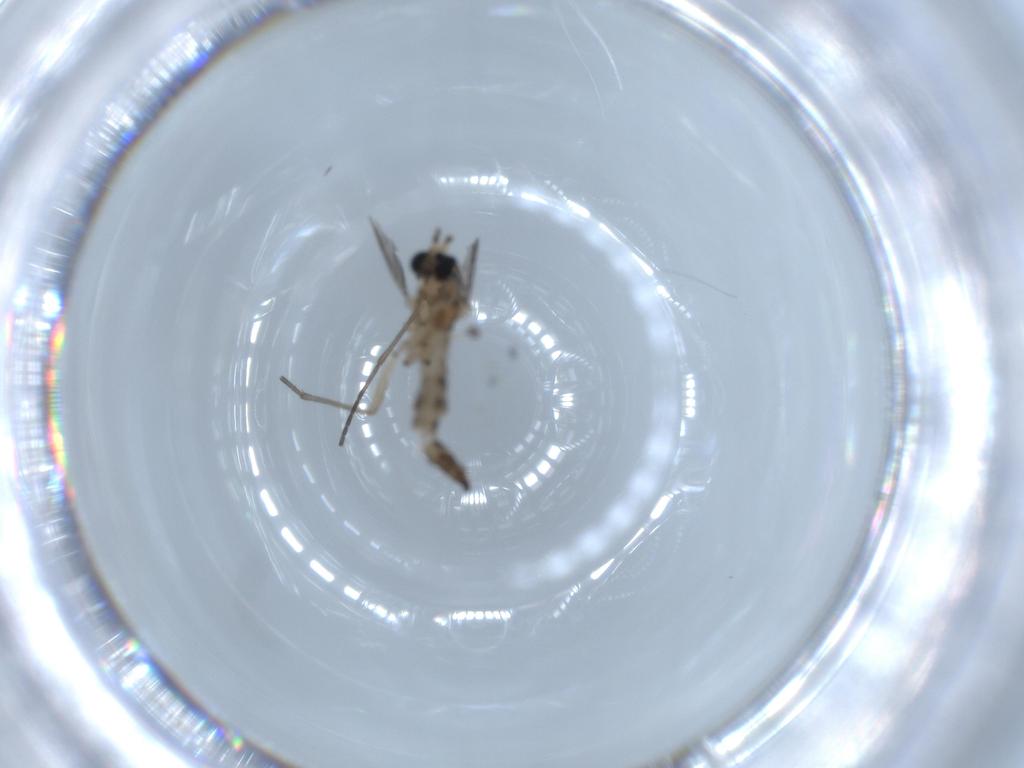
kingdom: Animalia
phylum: Arthropoda
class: Insecta
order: Diptera
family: Sciaridae
